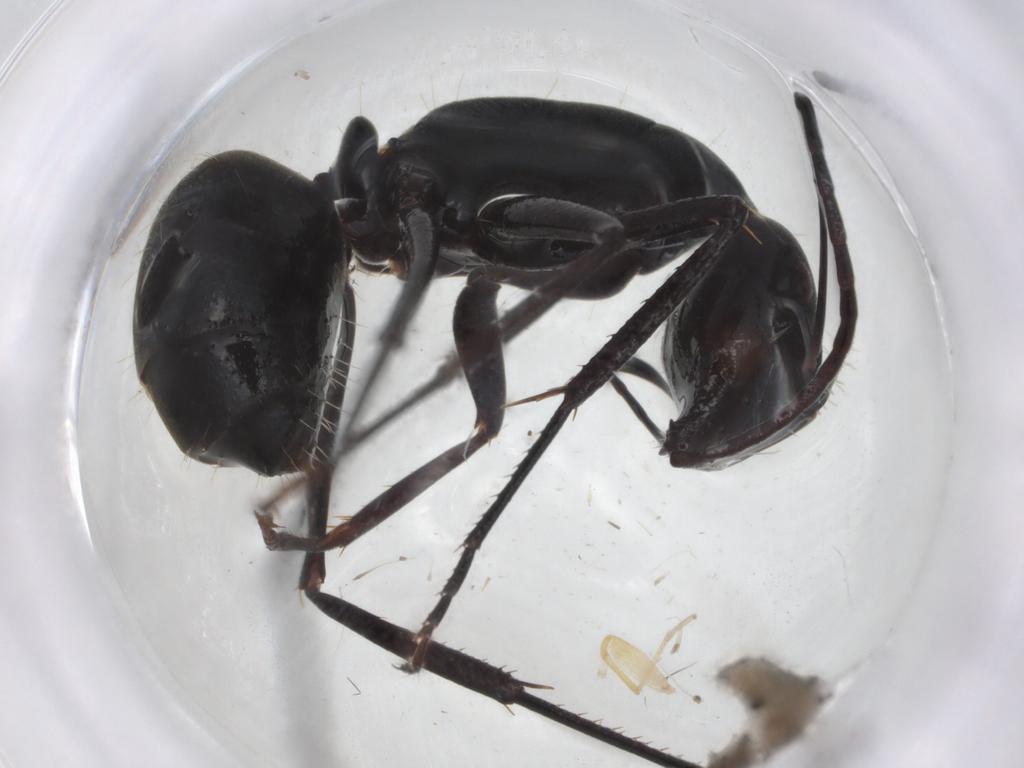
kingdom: Animalia
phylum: Arthropoda
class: Insecta
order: Hymenoptera
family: Formicidae
